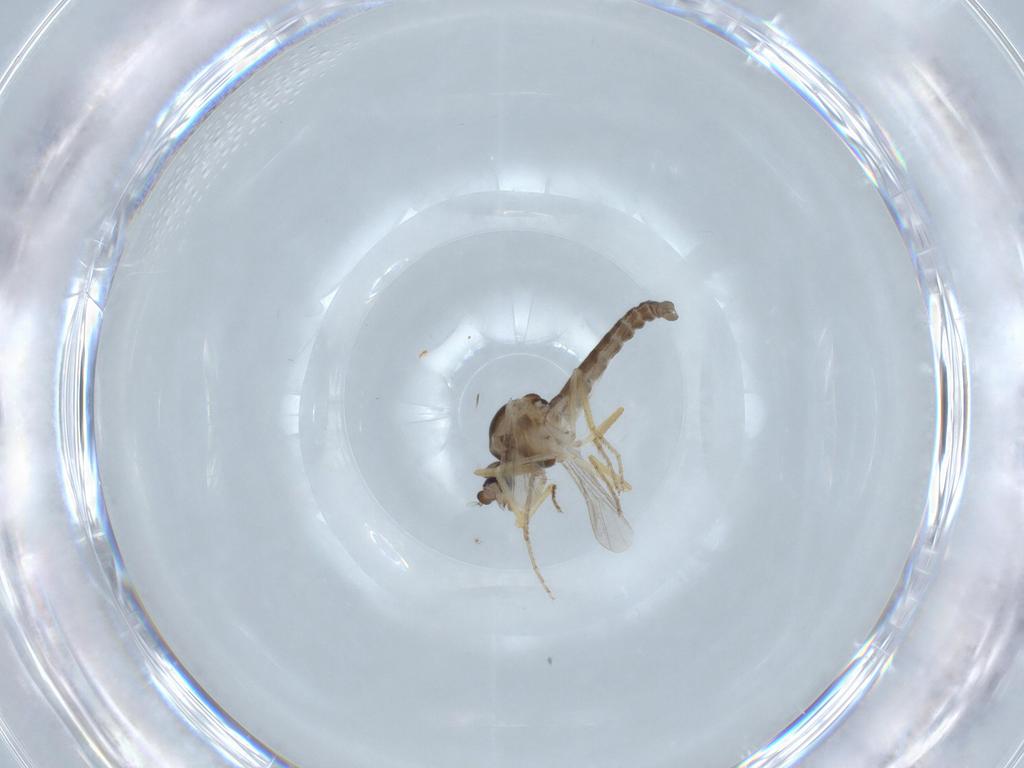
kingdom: Animalia
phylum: Arthropoda
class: Insecta
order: Diptera
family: Ceratopogonidae
